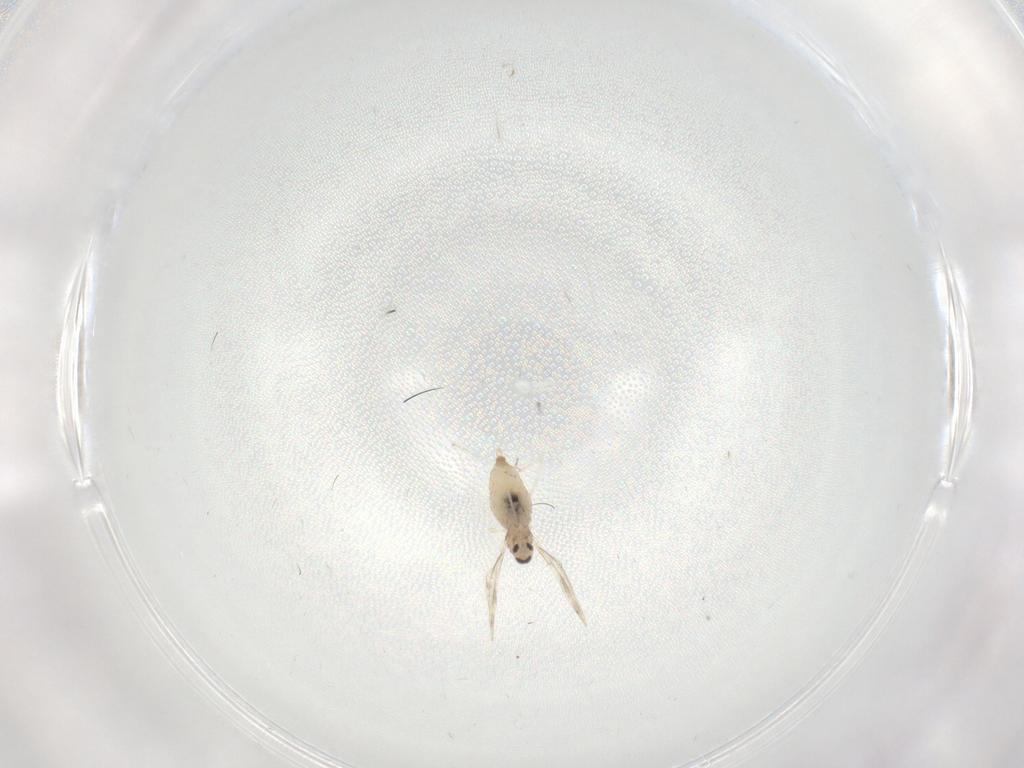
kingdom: Animalia
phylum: Arthropoda
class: Insecta
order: Diptera
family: Cecidomyiidae
